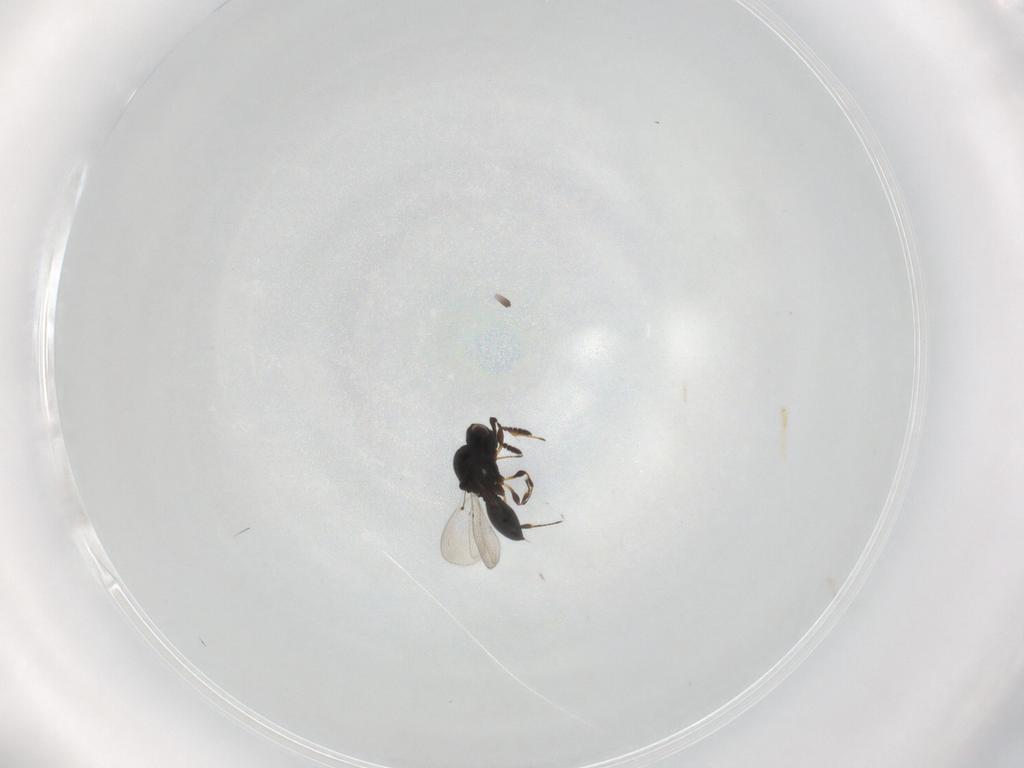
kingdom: Animalia
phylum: Arthropoda
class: Insecta
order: Hymenoptera
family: Platygastridae
